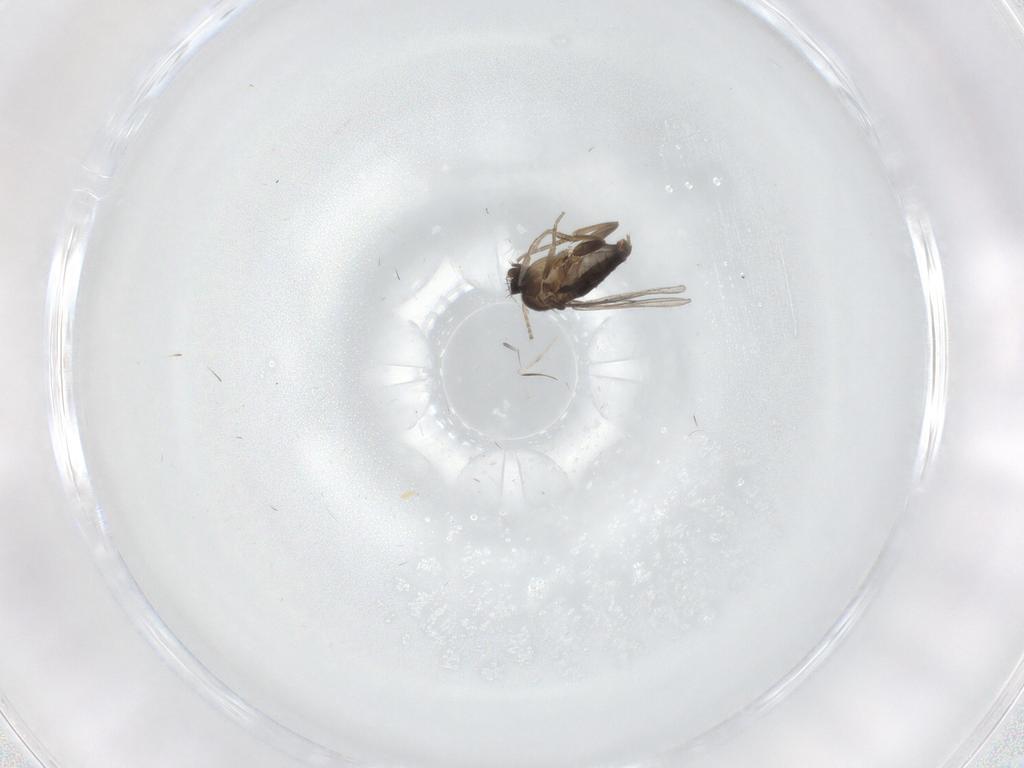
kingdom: Animalia
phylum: Arthropoda
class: Insecta
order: Diptera
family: Phoridae
